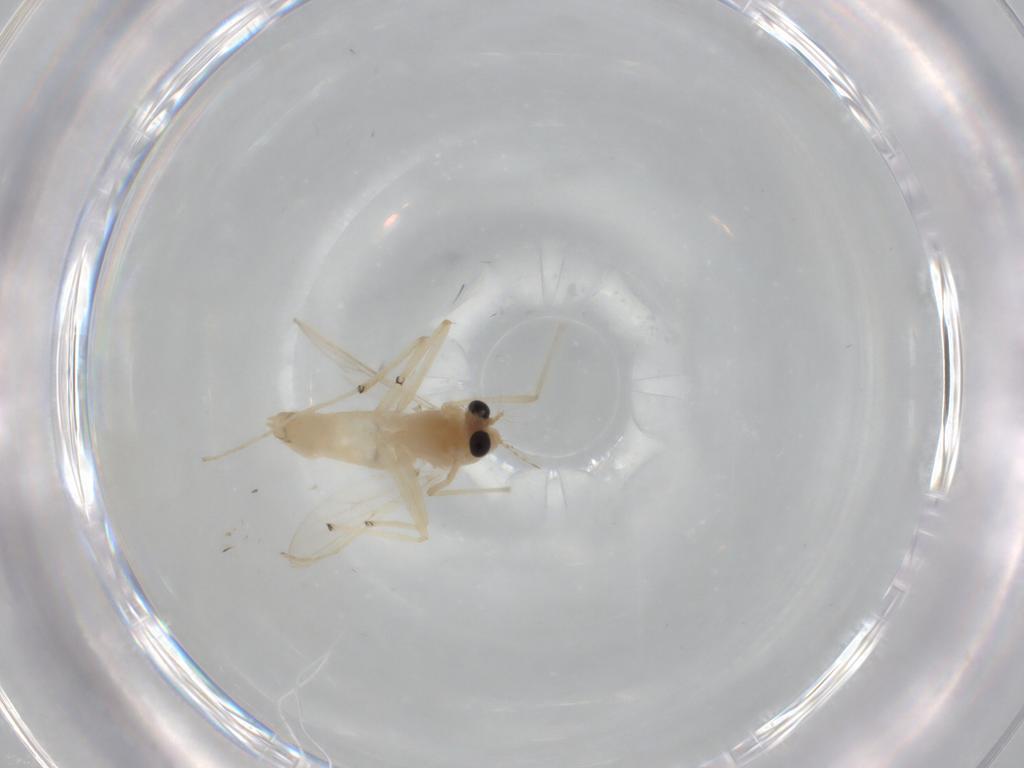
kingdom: Animalia
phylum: Arthropoda
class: Insecta
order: Diptera
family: Chironomidae
